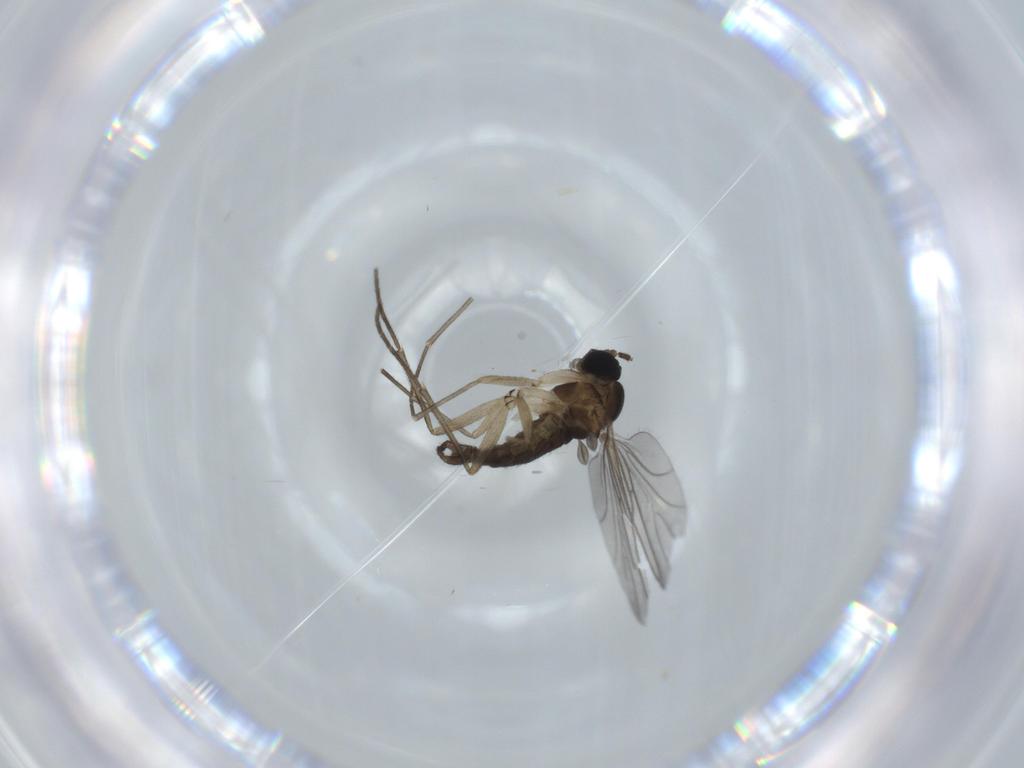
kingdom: Animalia
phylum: Arthropoda
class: Insecta
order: Diptera
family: Sciaridae
